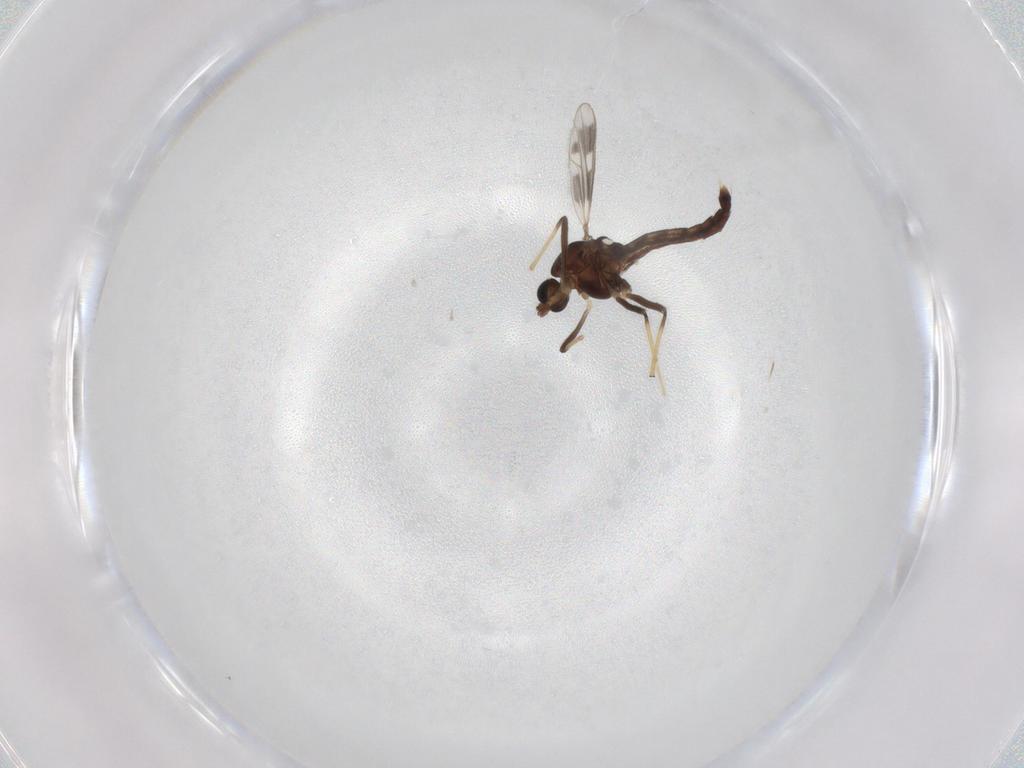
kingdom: Animalia
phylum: Arthropoda
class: Insecta
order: Diptera
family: Chironomidae
